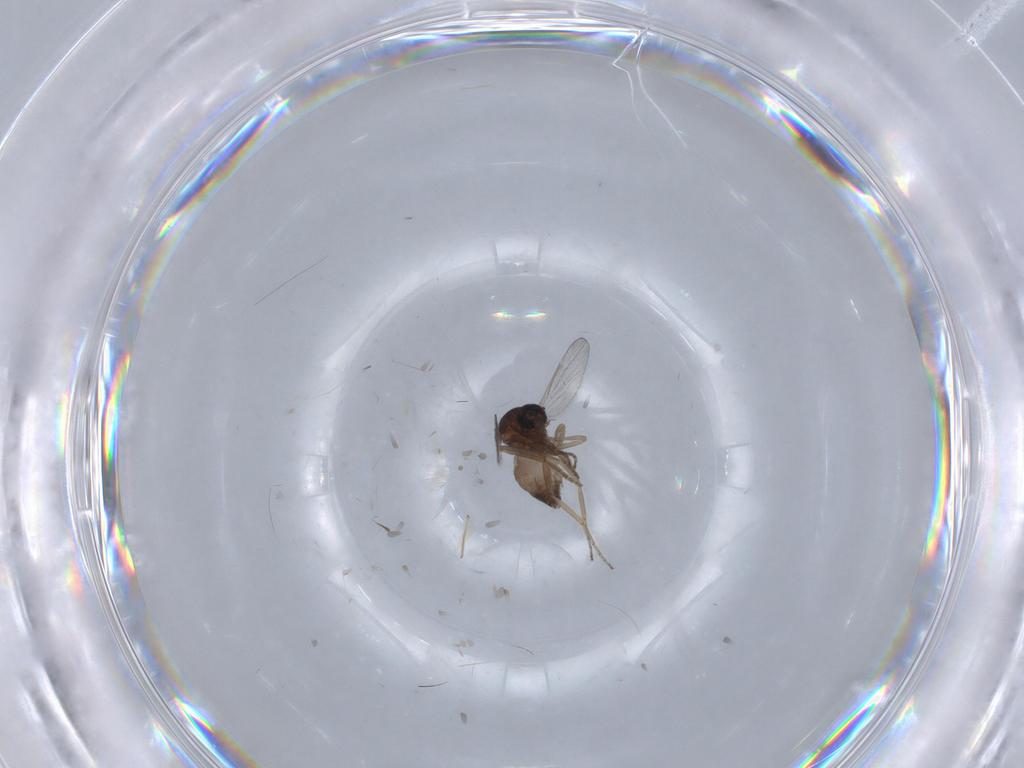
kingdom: Animalia
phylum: Arthropoda
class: Insecta
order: Diptera
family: Ceratopogonidae
